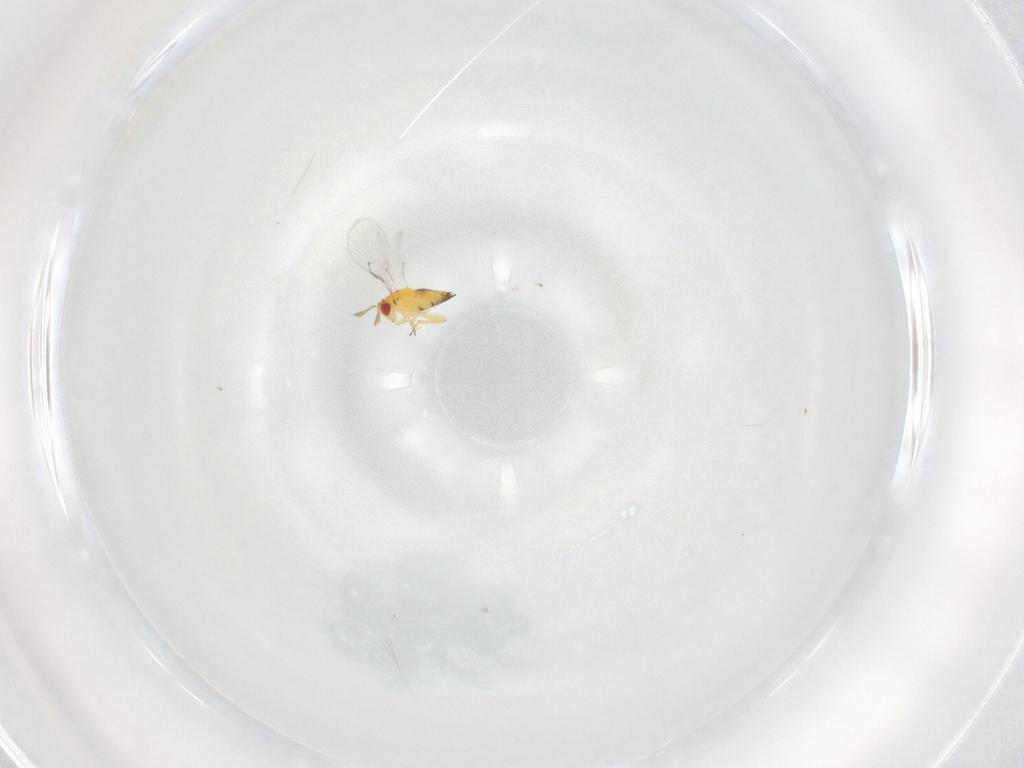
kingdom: Animalia
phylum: Arthropoda
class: Insecta
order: Hymenoptera
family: Trichogrammatidae
